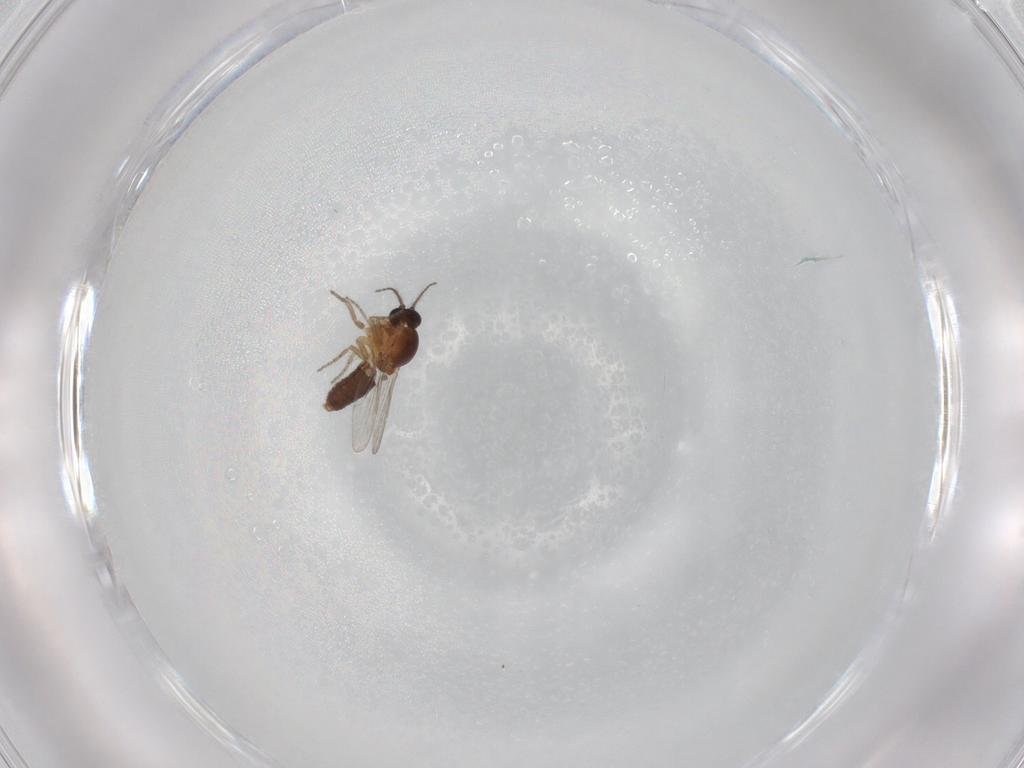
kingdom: Animalia
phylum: Arthropoda
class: Insecta
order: Diptera
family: Ceratopogonidae
